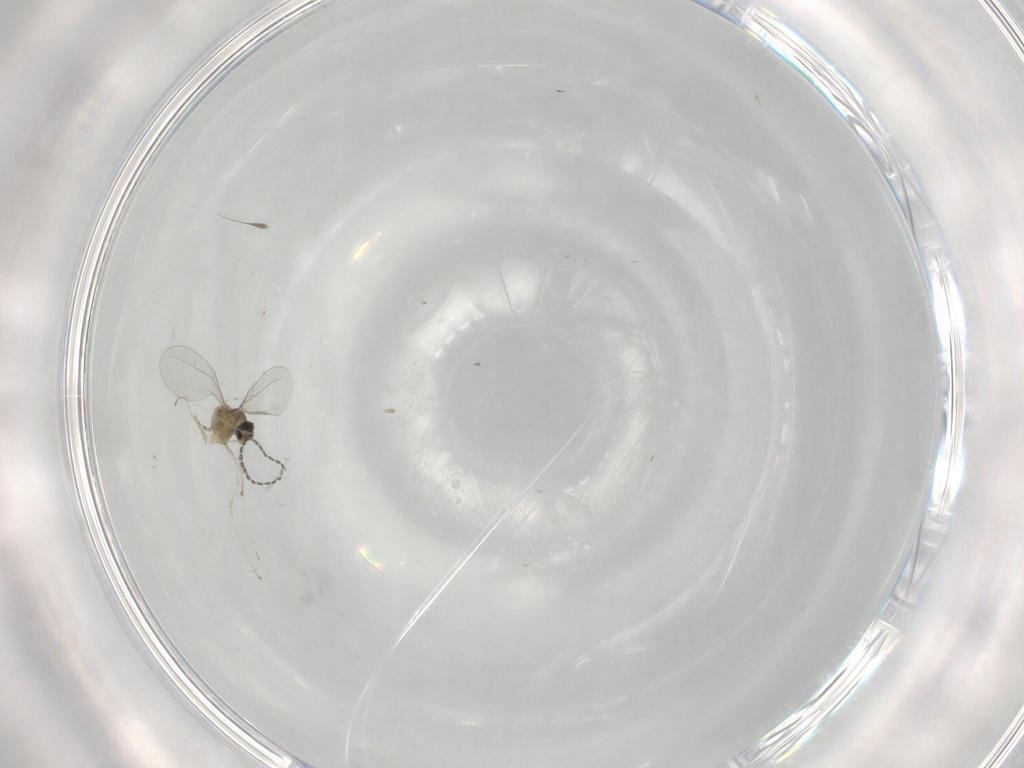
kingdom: Animalia
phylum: Arthropoda
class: Insecta
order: Diptera
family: Cecidomyiidae
